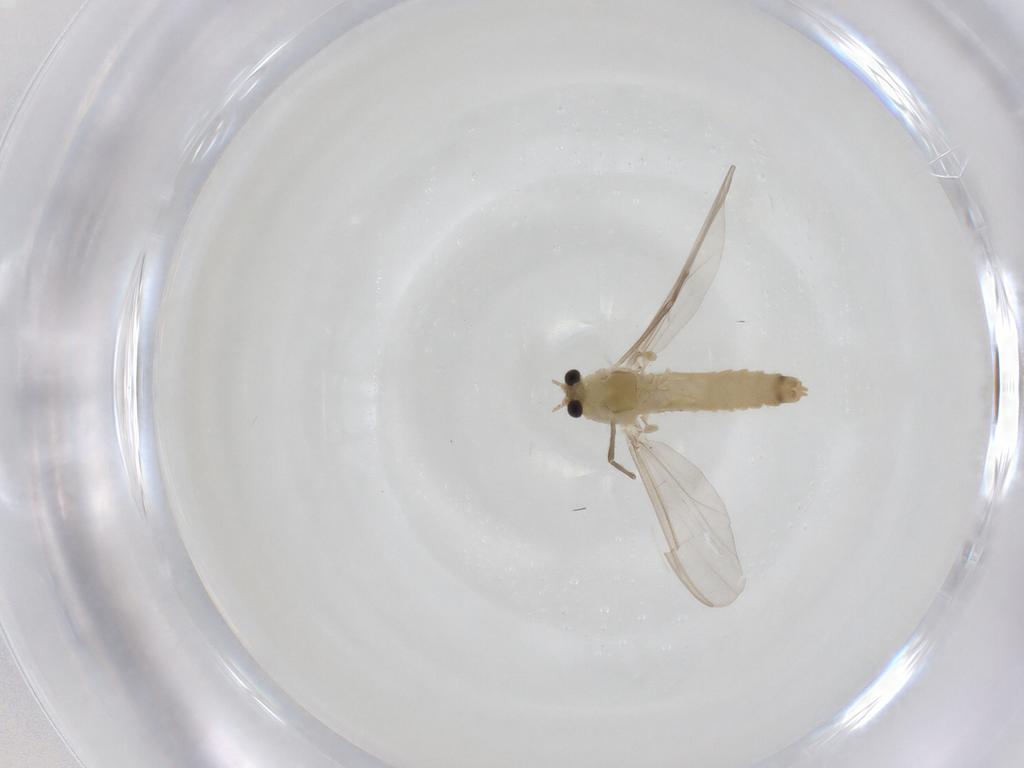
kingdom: Animalia
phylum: Arthropoda
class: Insecta
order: Diptera
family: Chironomidae
